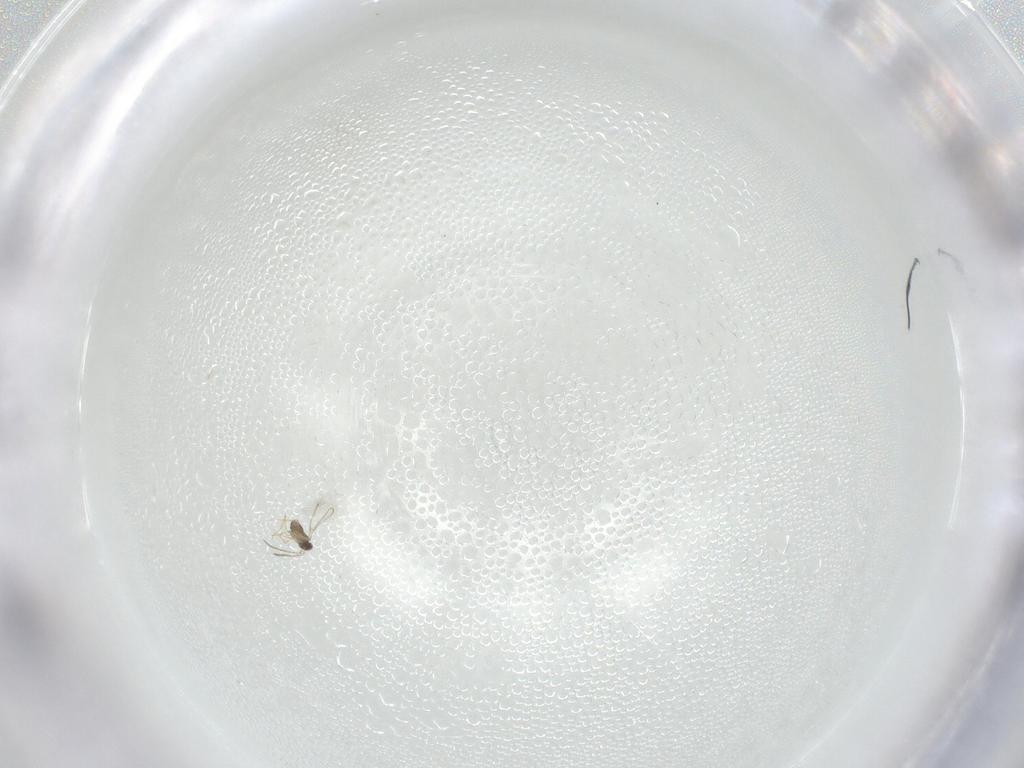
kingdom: Animalia
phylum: Arthropoda
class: Insecta
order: Hymenoptera
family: Mymaridae
